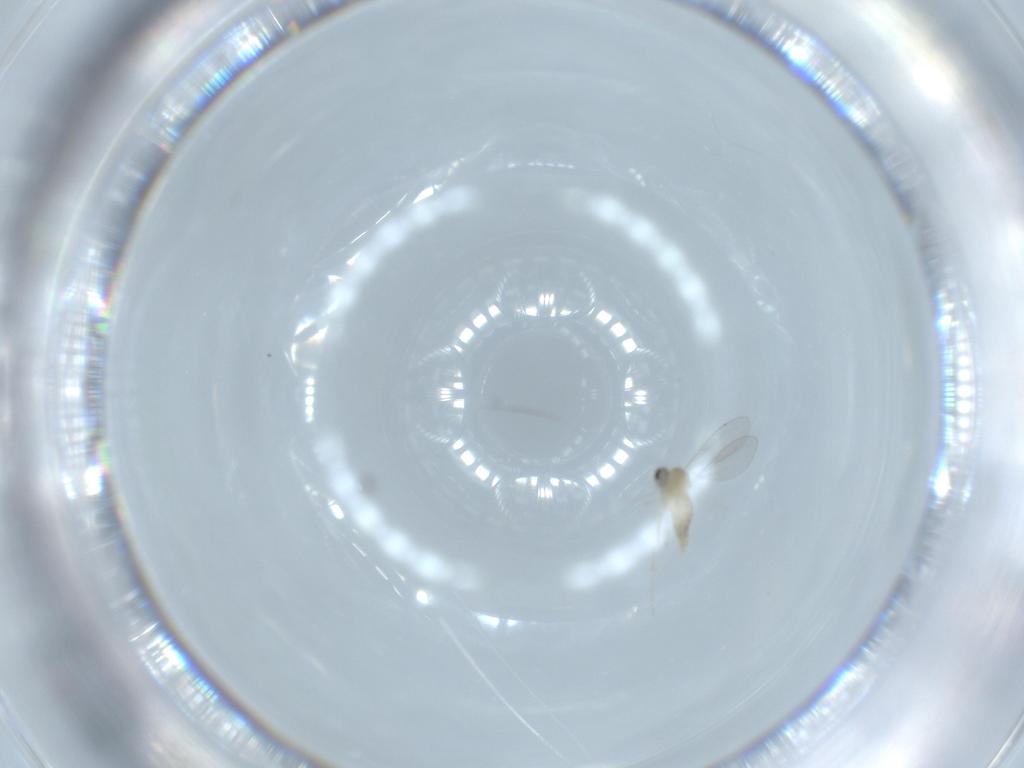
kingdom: Animalia
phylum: Arthropoda
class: Insecta
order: Diptera
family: Cecidomyiidae
